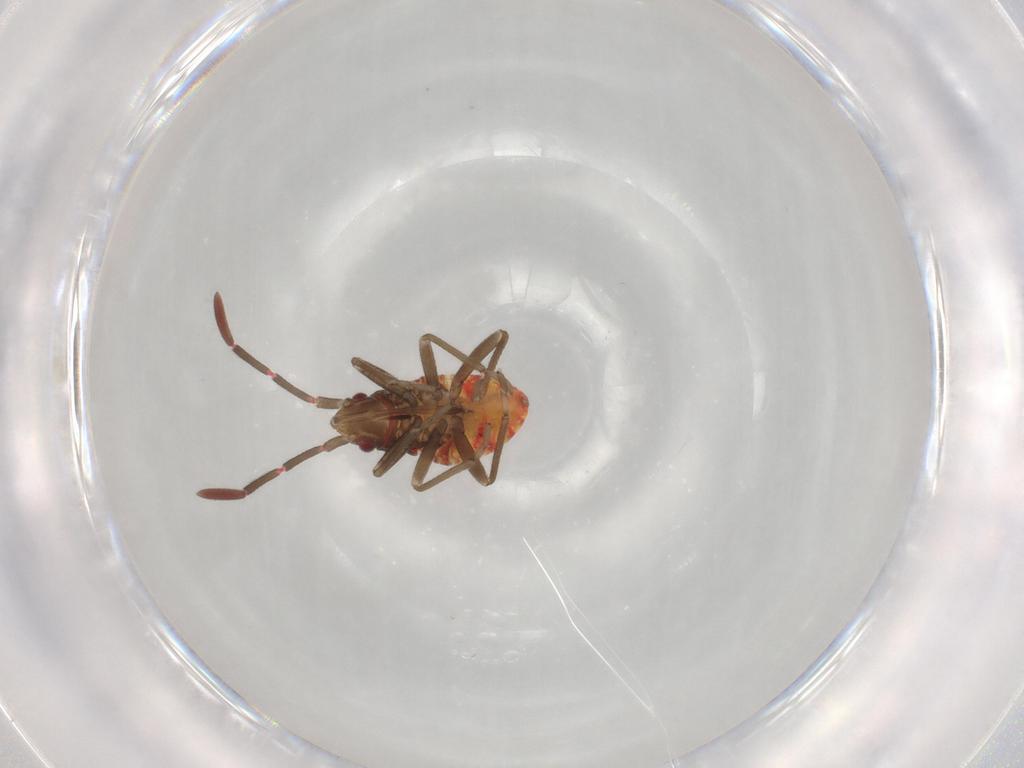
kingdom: Animalia
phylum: Arthropoda
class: Insecta
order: Hemiptera
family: Rhyparochromidae
